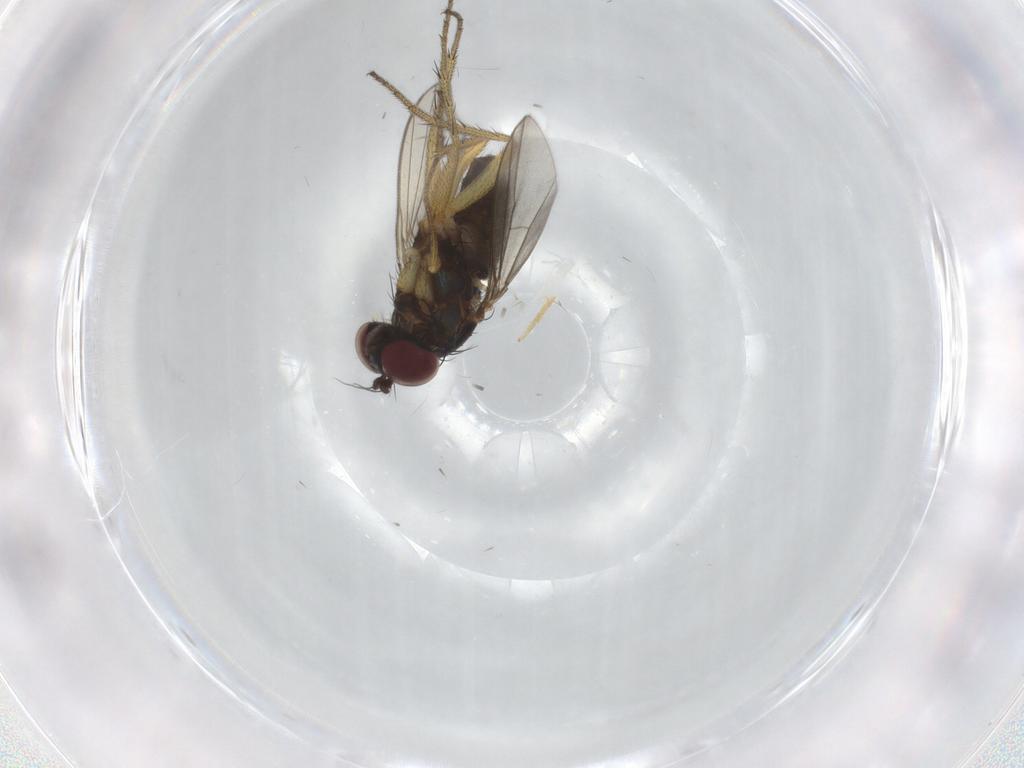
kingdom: Animalia
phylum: Arthropoda
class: Insecta
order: Diptera
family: Dolichopodidae
